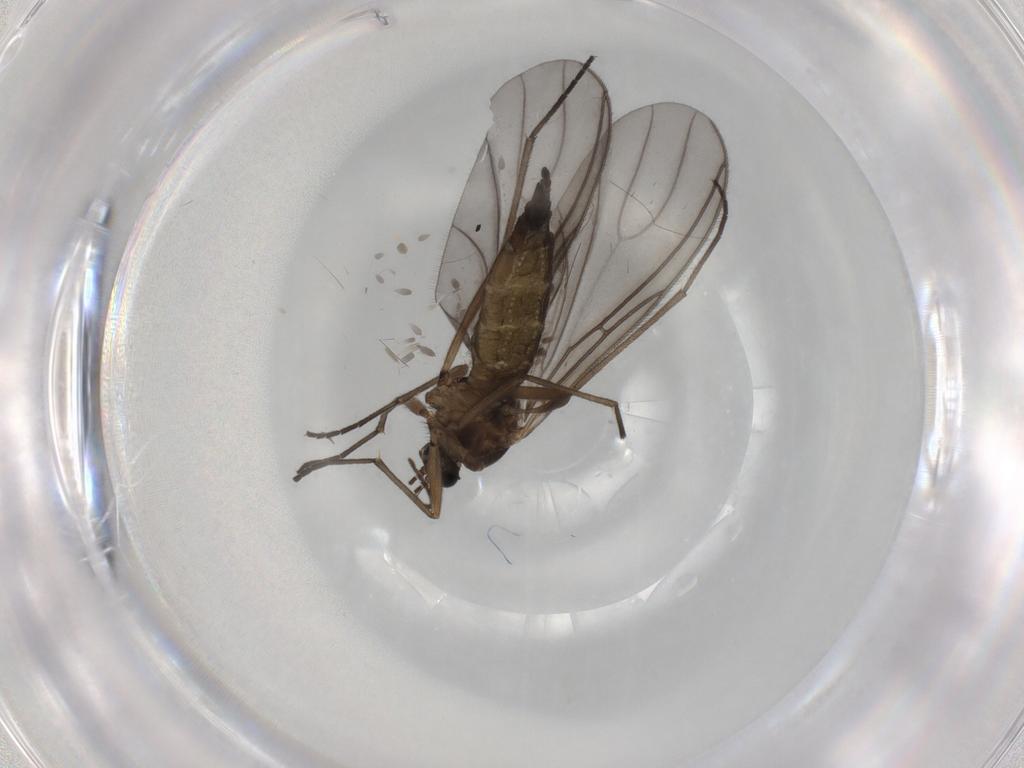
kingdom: Animalia
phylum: Arthropoda
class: Insecta
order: Diptera
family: Sciaridae
